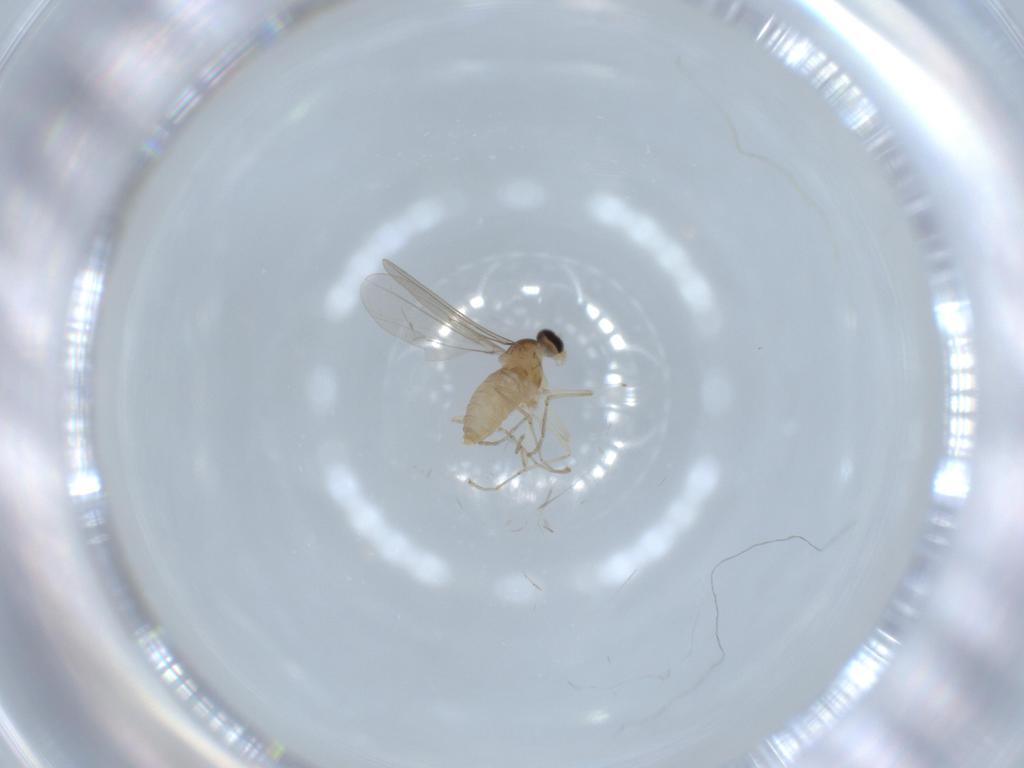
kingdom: Animalia
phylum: Arthropoda
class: Insecta
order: Diptera
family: Cecidomyiidae
